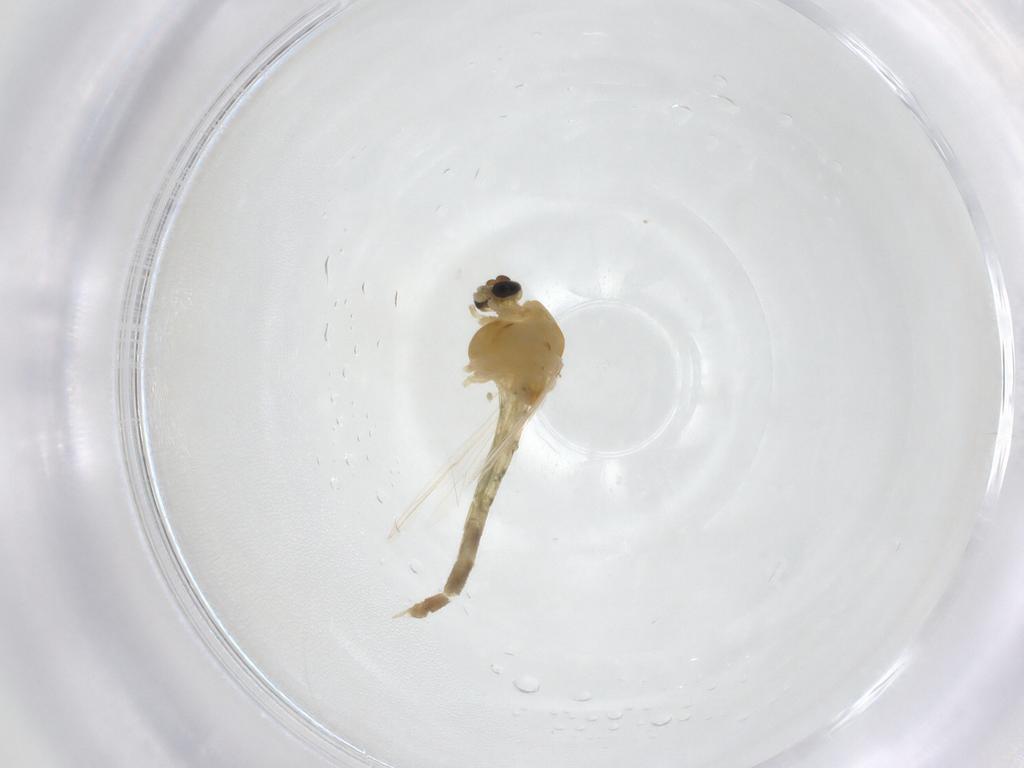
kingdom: Animalia
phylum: Arthropoda
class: Insecta
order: Diptera
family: Chironomidae
